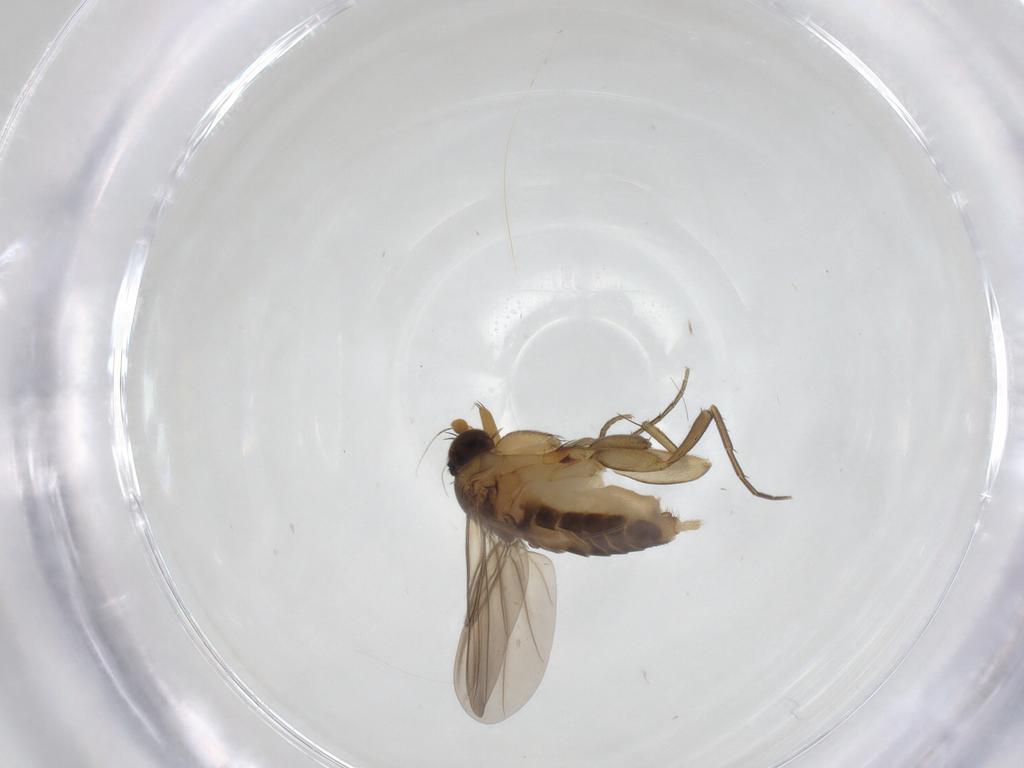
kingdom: Animalia
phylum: Arthropoda
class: Insecta
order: Diptera
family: Phoridae
